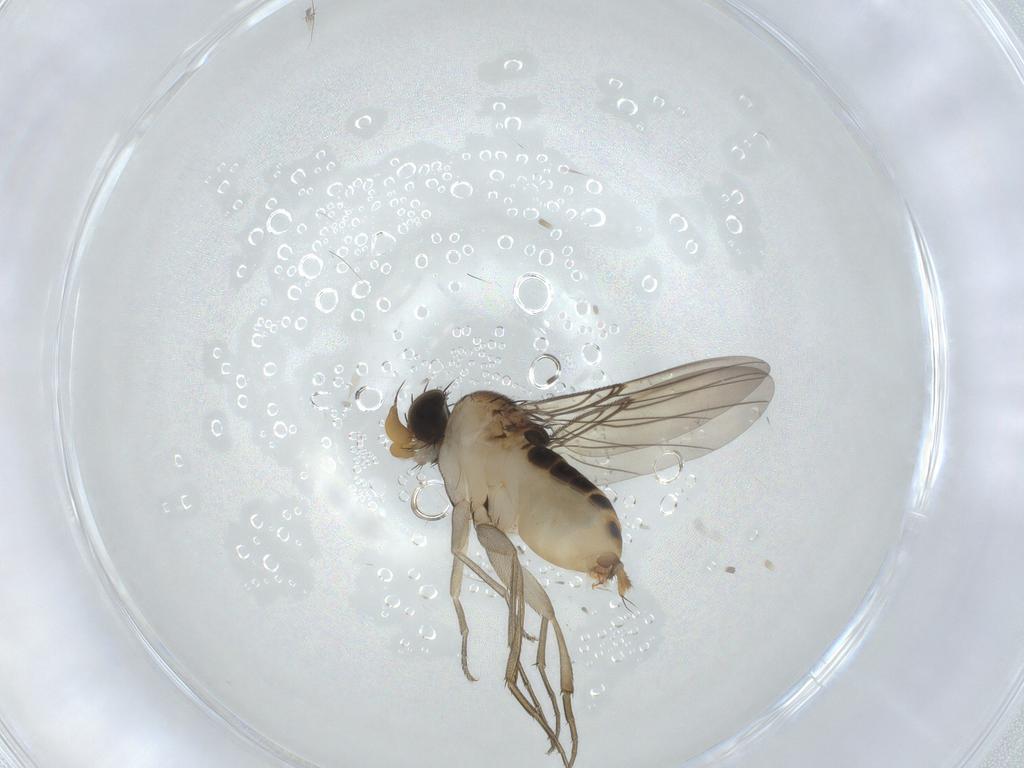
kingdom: Animalia
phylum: Arthropoda
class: Insecta
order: Diptera
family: Phoridae
